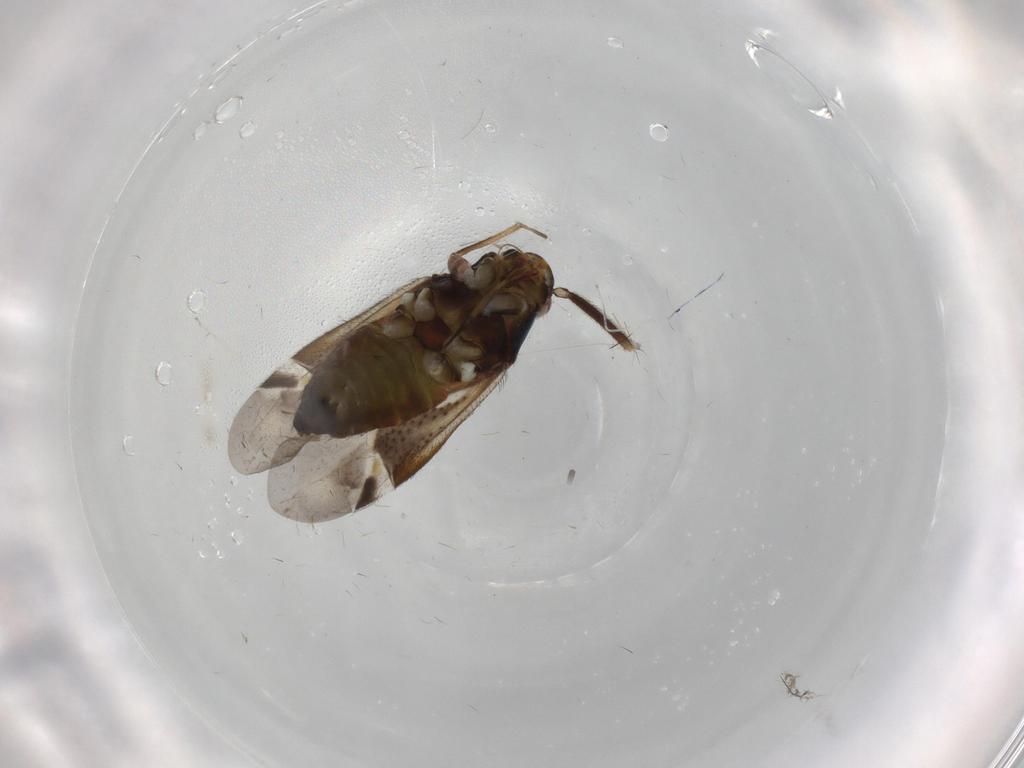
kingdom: Animalia
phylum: Arthropoda
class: Insecta
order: Hemiptera
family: Miridae
